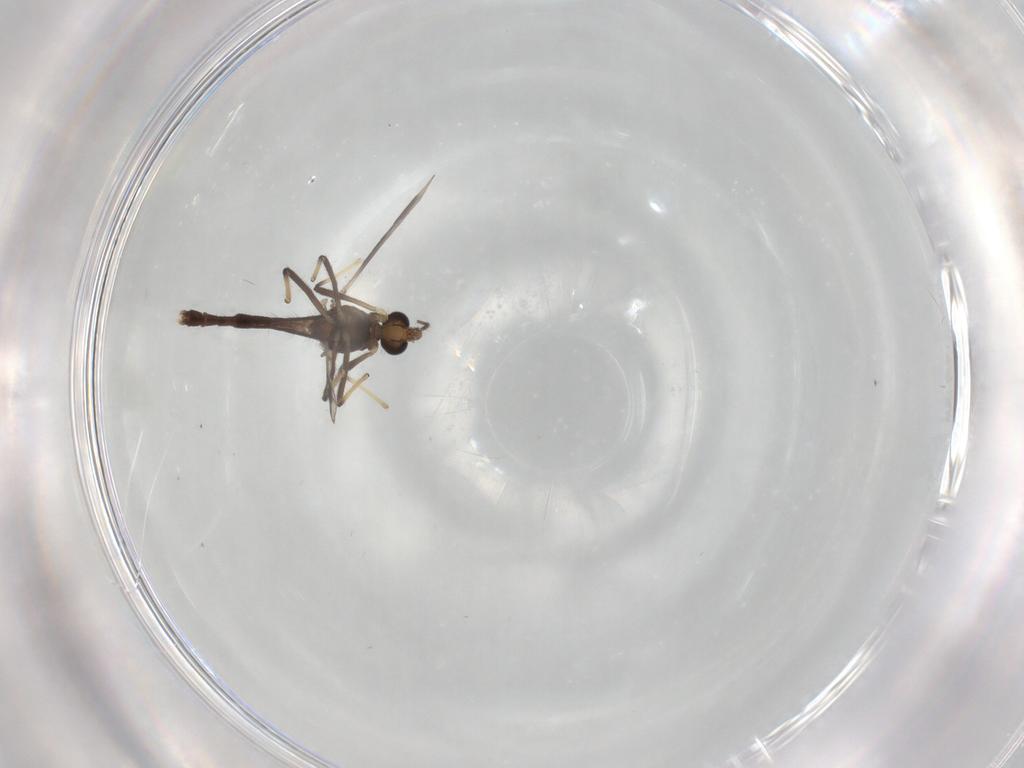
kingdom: Animalia
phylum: Arthropoda
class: Insecta
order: Diptera
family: Chironomidae
